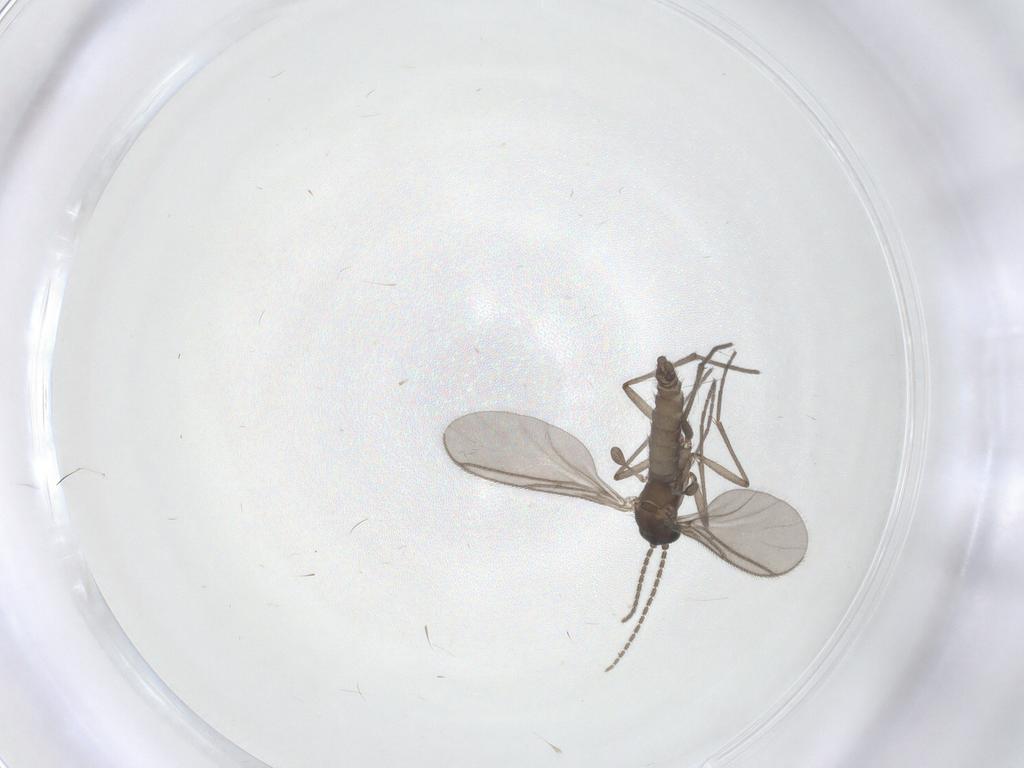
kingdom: Animalia
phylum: Arthropoda
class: Insecta
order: Diptera
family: Sciaridae
